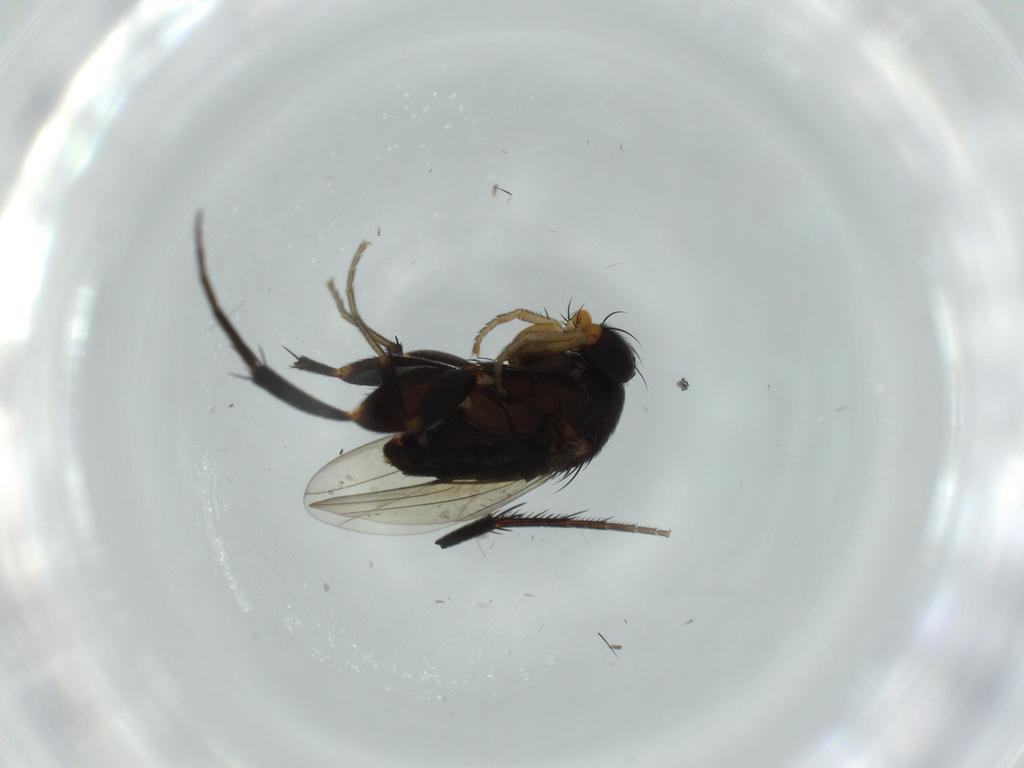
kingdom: Animalia
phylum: Arthropoda
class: Insecta
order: Diptera
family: Phoridae
